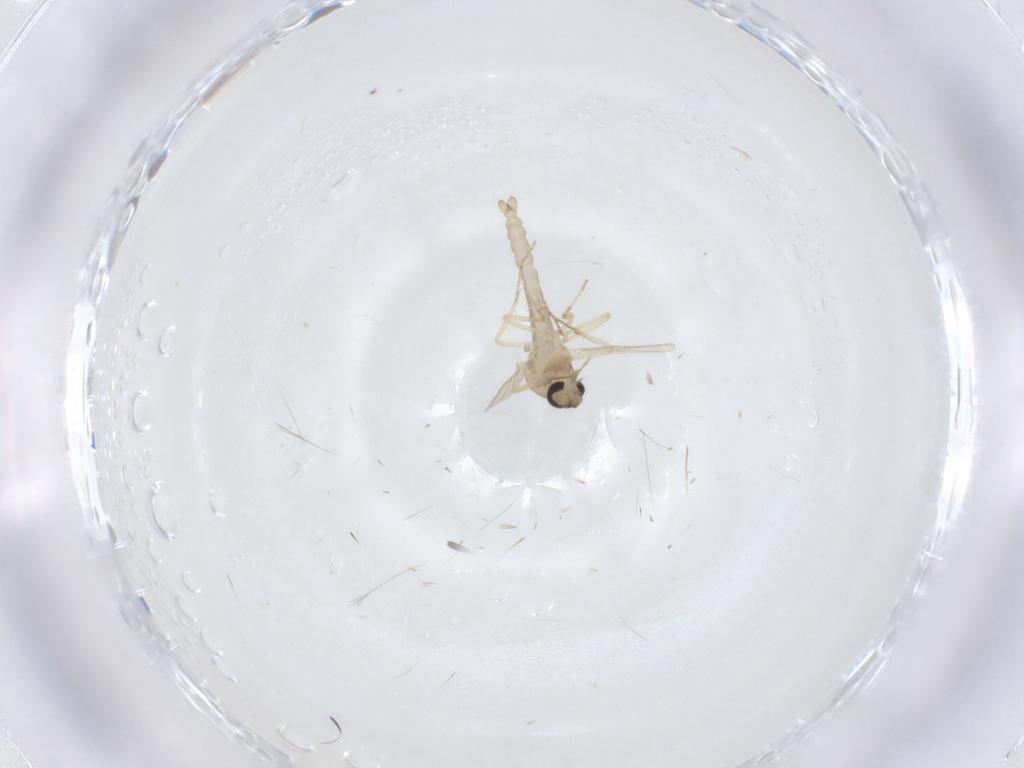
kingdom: Animalia
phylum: Arthropoda
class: Insecta
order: Diptera
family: Ceratopogonidae
